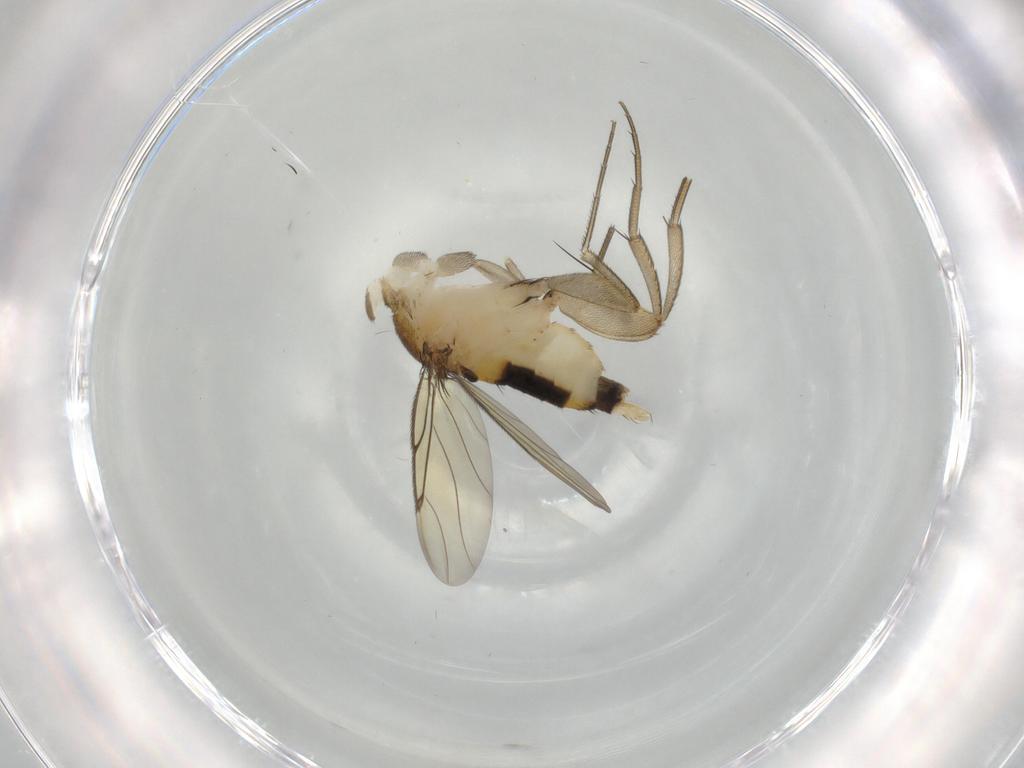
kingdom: Animalia
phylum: Arthropoda
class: Insecta
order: Diptera
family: Phoridae
